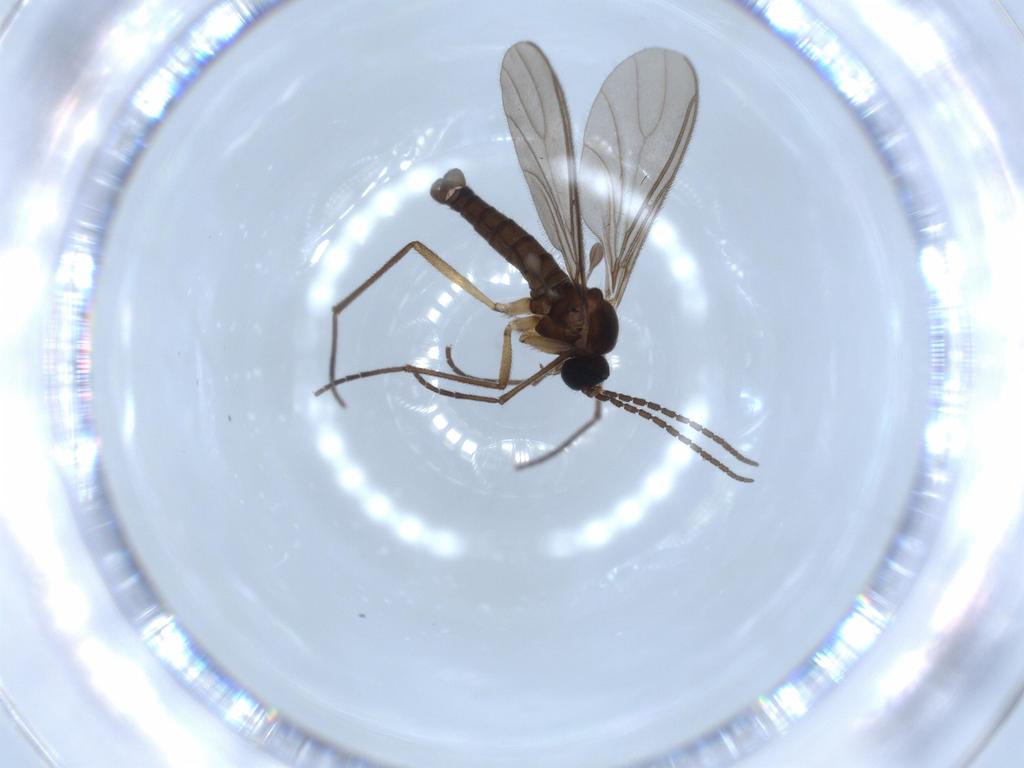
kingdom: Animalia
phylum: Arthropoda
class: Insecta
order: Diptera
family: Sciaridae
